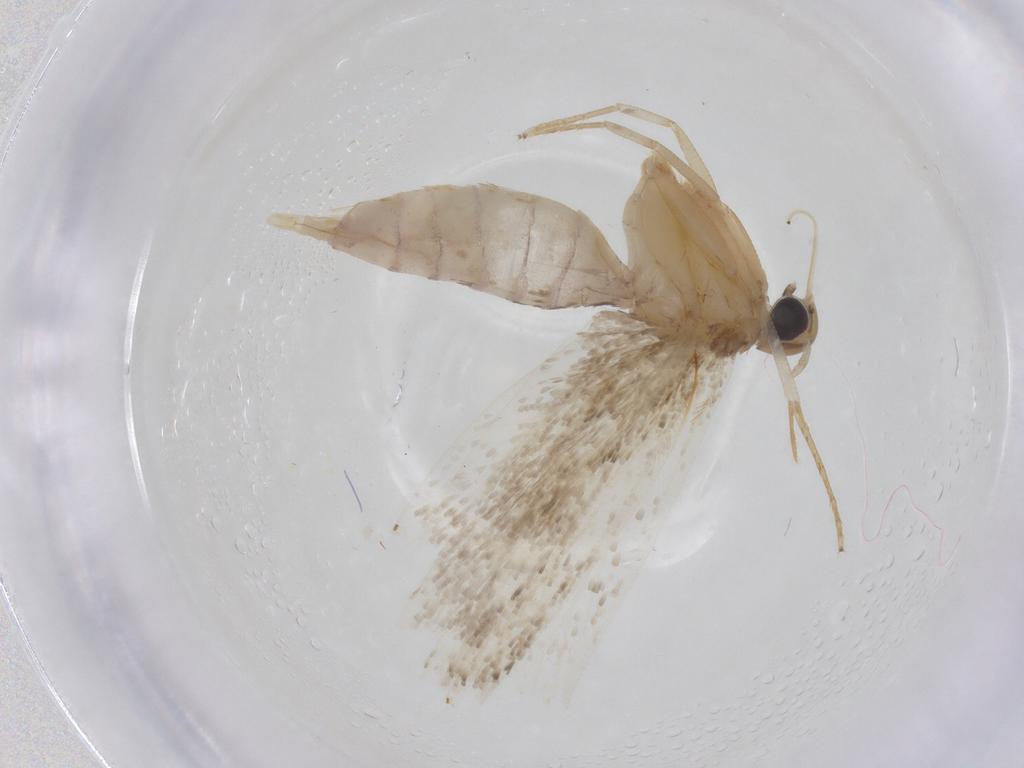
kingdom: Animalia
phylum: Arthropoda
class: Insecta
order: Lepidoptera
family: Gelechiidae
